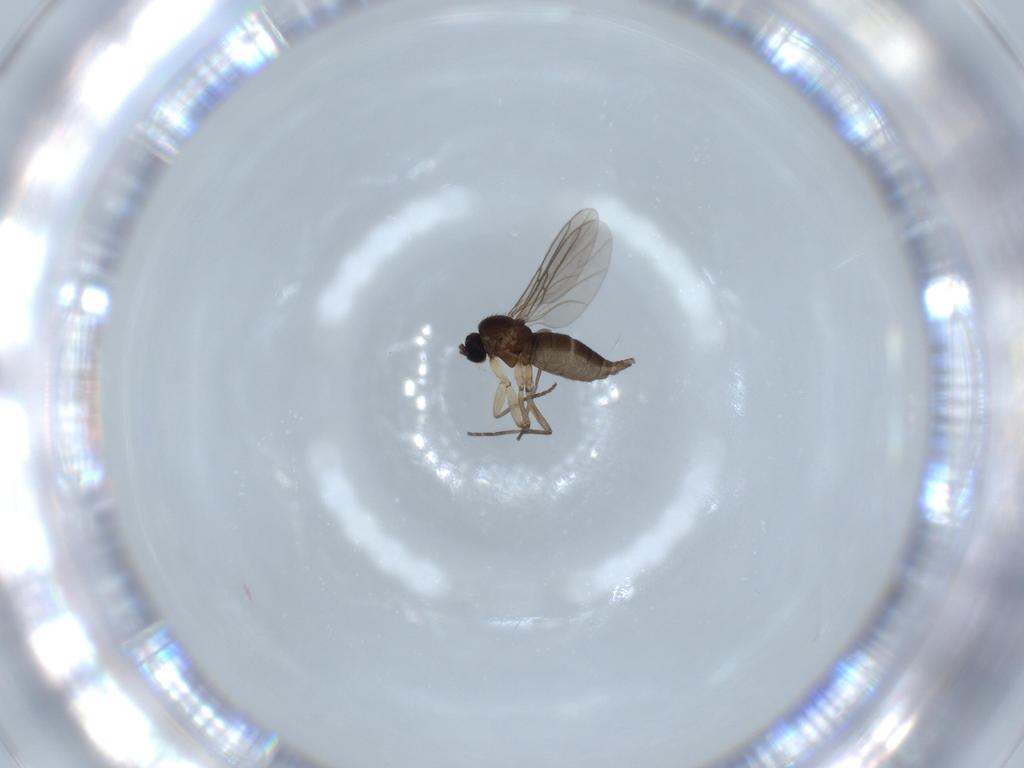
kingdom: Animalia
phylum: Arthropoda
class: Insecta
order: Diptera
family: Sciaridae
